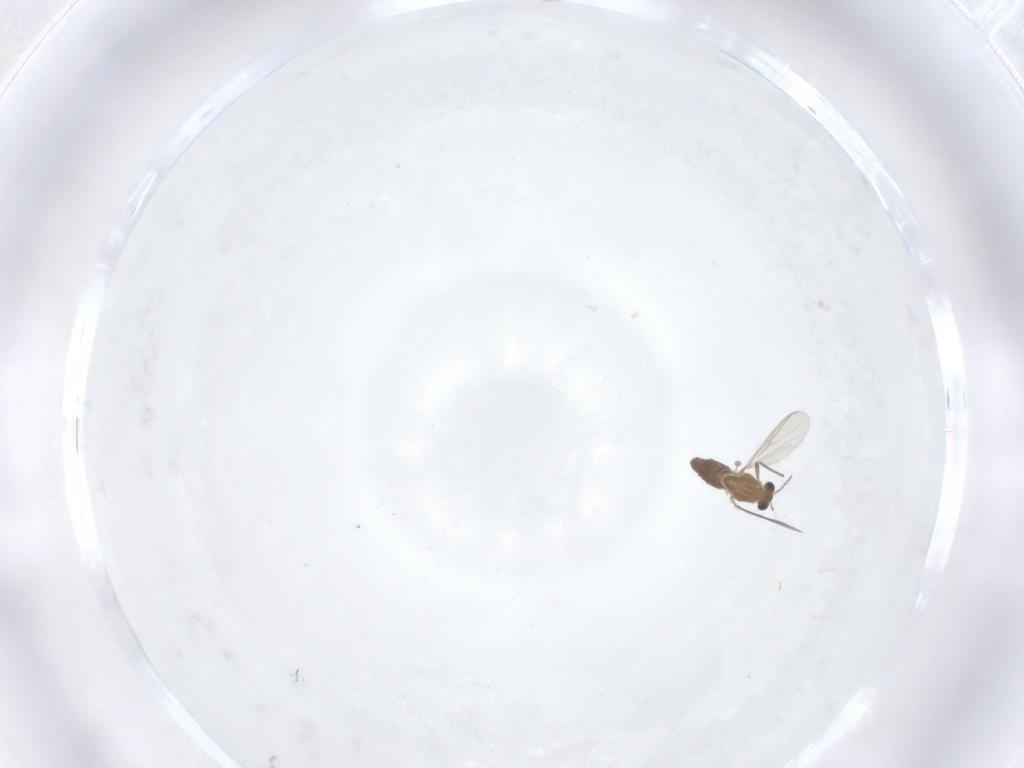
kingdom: Animalia
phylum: Arthropoda
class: Insecta
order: Diptera
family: Chironomidae
